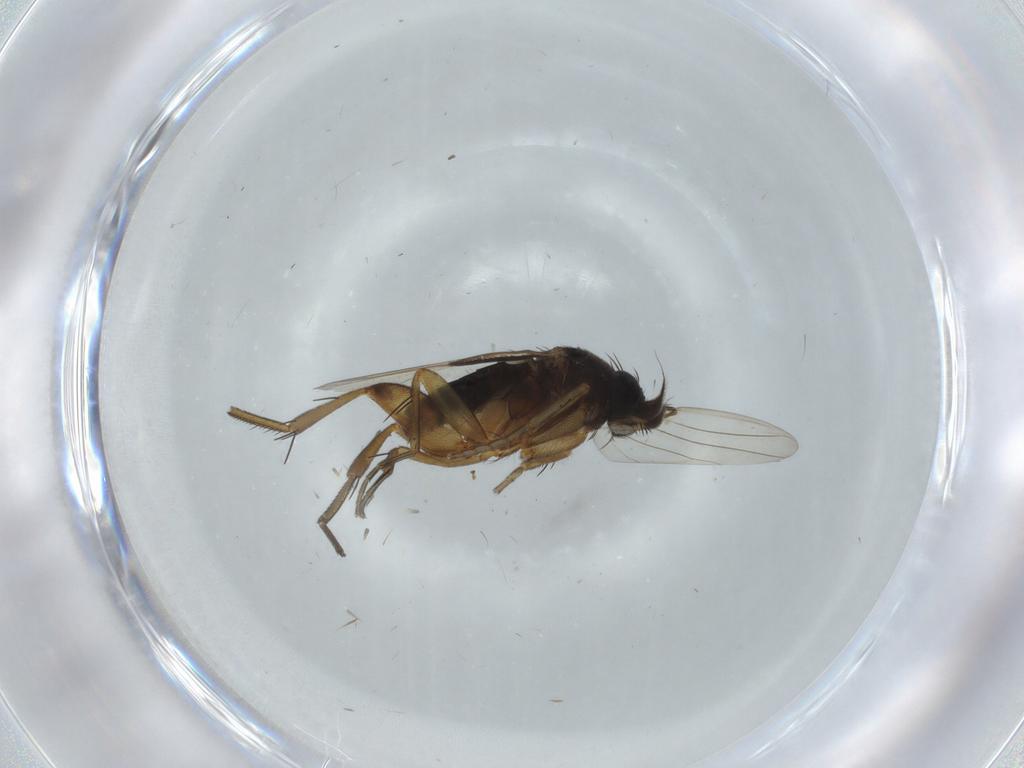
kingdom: Animalia
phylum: Arthropoda
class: Insecta
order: Diptera
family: Phoridae
